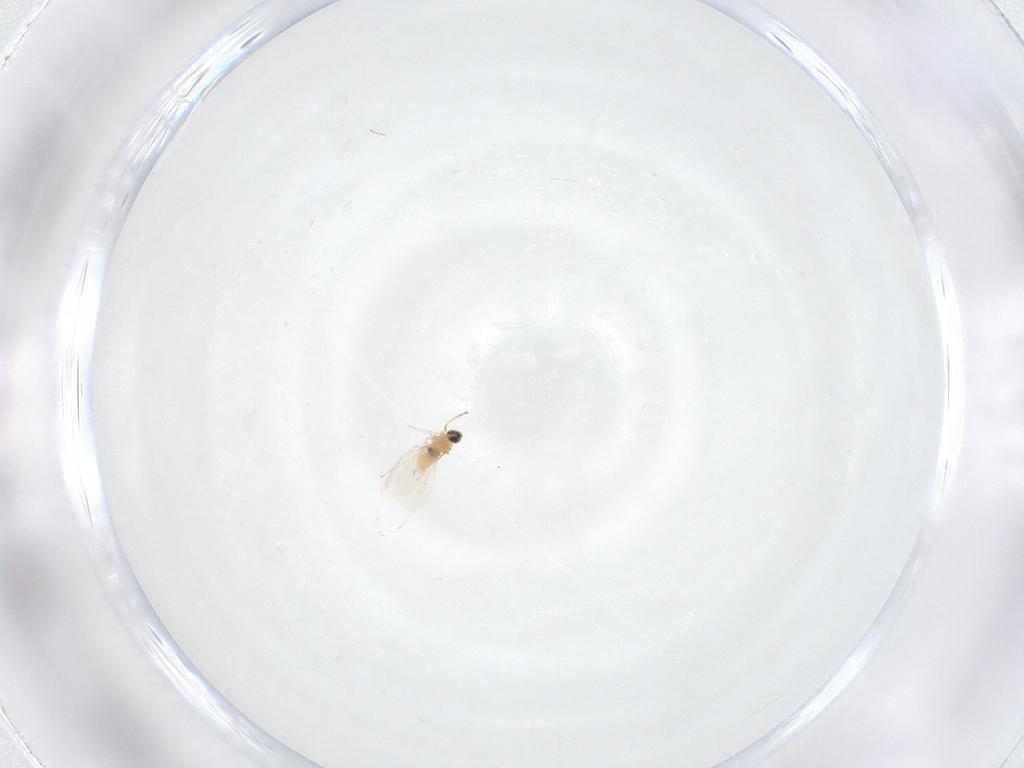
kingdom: Animalia
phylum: Arthropoda
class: Insecta
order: Diptera
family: Cecidomyiidae
